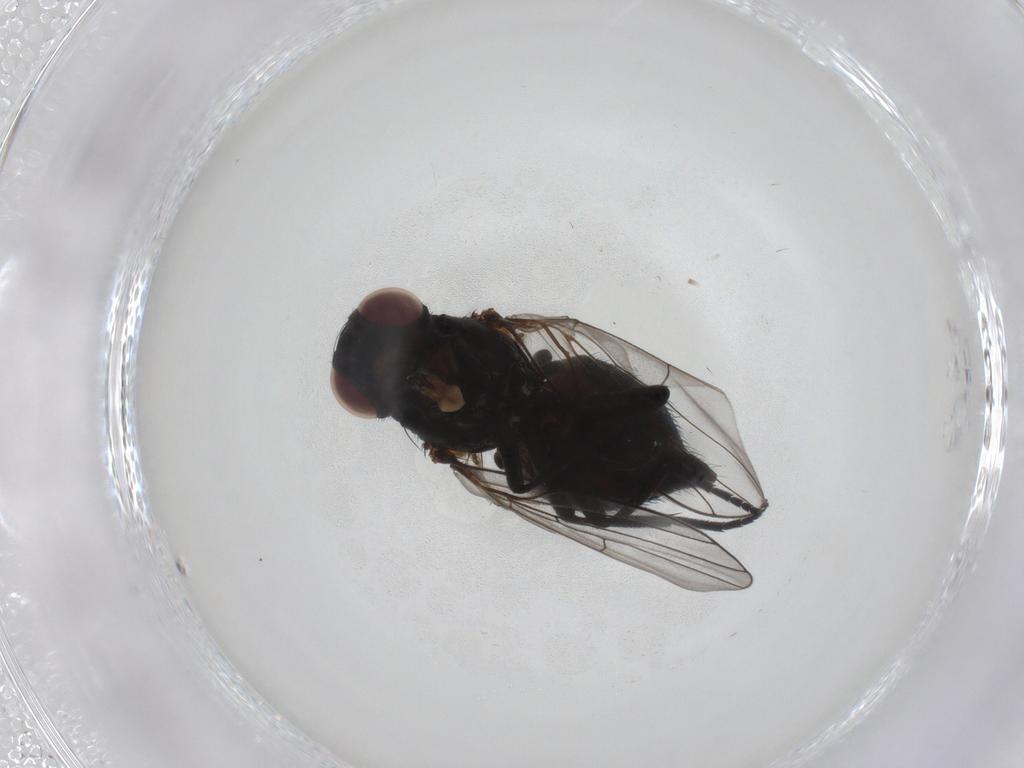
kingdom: Animalia
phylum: Arthropoda
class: Insecta
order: Diptera
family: Agromyzidae
